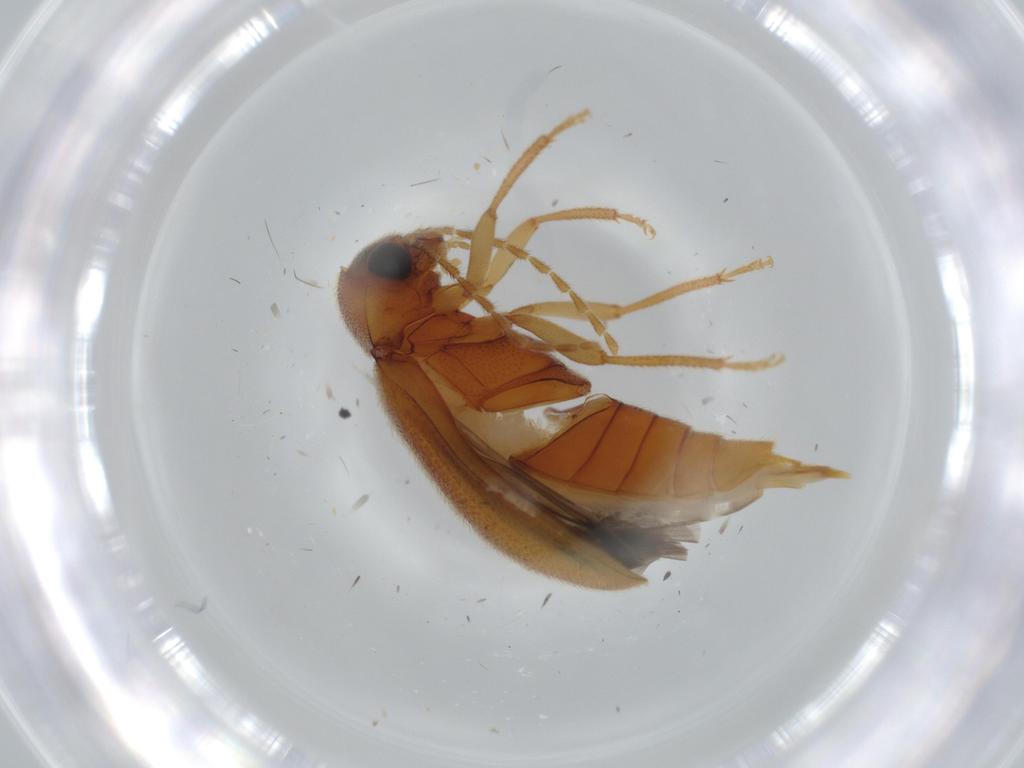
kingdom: Animalia
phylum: Arthropoda
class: Insecta
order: Coleoptera
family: Ptilodactylidae
